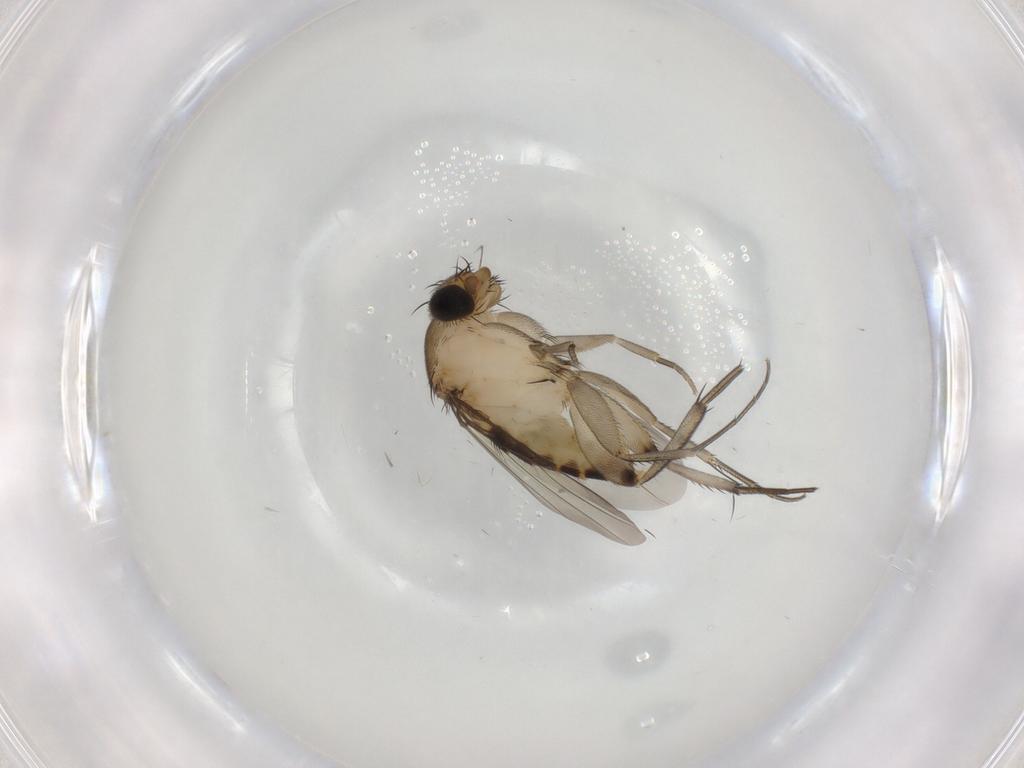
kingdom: Animalia
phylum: Arthropoda
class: Insecta
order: Diptera
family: Phoridae
